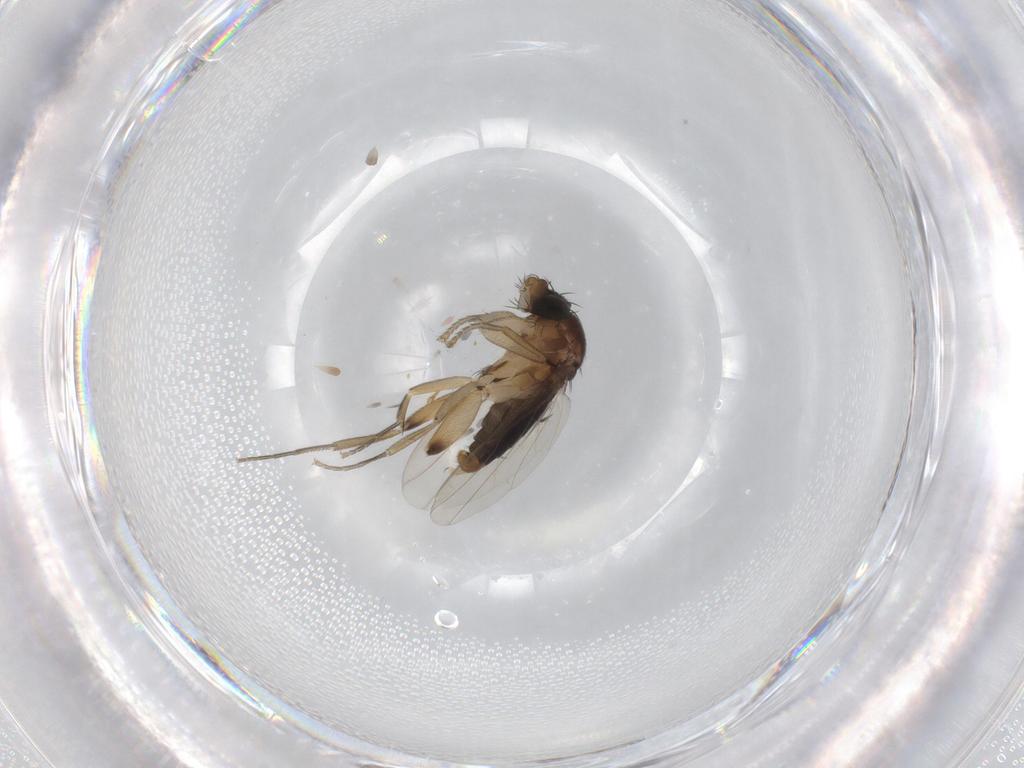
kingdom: Animalia
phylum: Arthropoda
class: Insecta
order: Diptera
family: Phoridae
